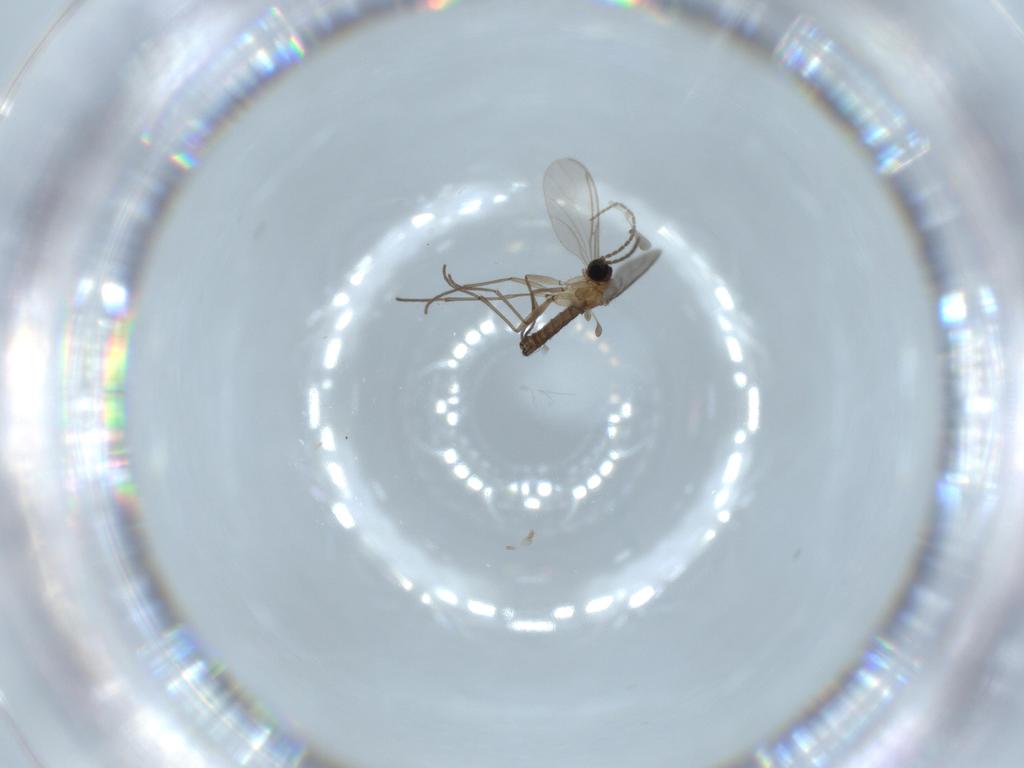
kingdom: Animalia
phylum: Arthropoda
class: Insecta
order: Diptera
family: Sciaridae
